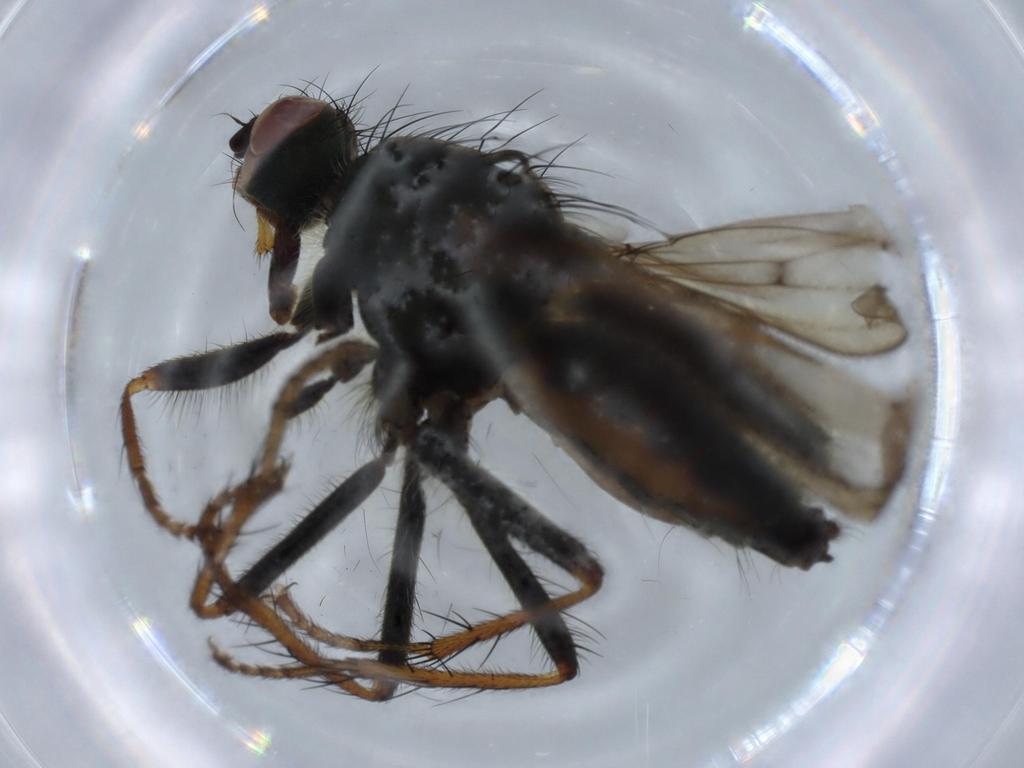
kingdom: Animalia
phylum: Arthropoda
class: Insecta
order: Diptera
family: Scathophagidae
